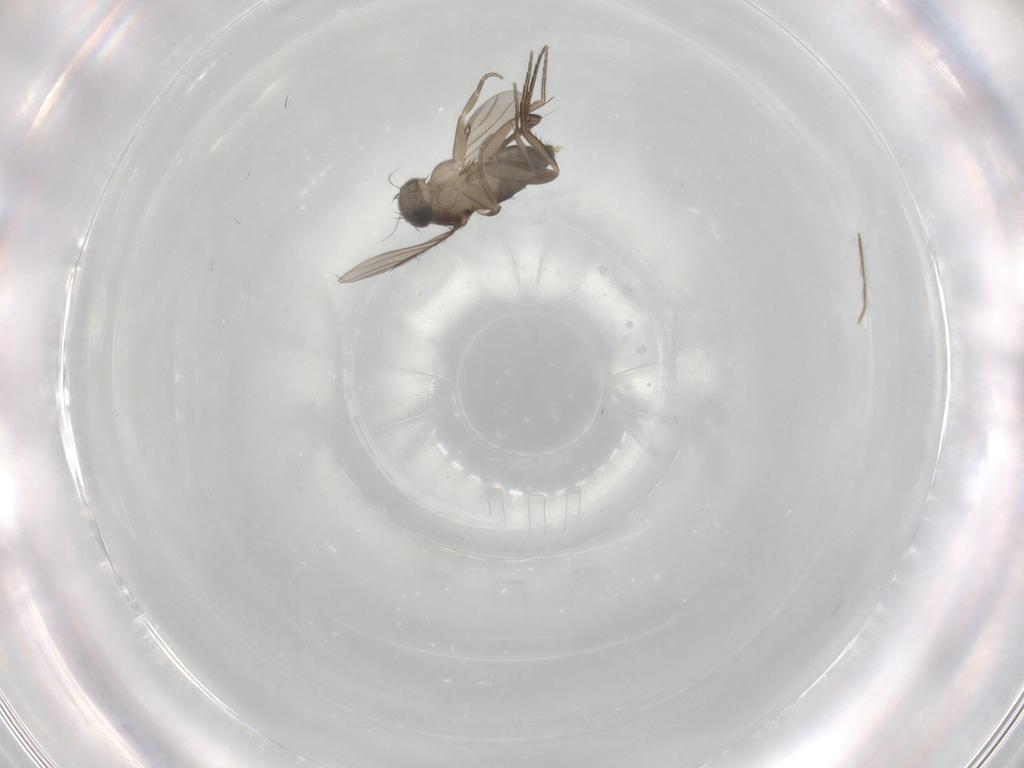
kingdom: Animalia
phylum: Arthropoda
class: Insecta
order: Diptera
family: Phoridae
